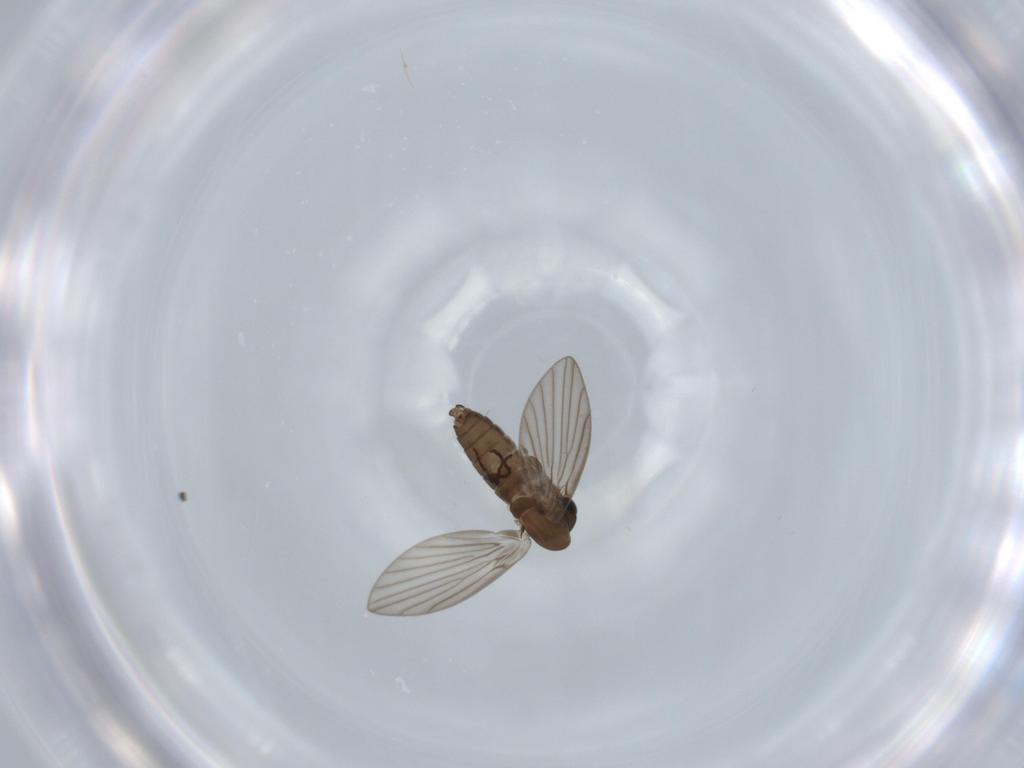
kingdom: Animalia
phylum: Arthropoda
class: Insecta
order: Diptera
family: Psychodidae
